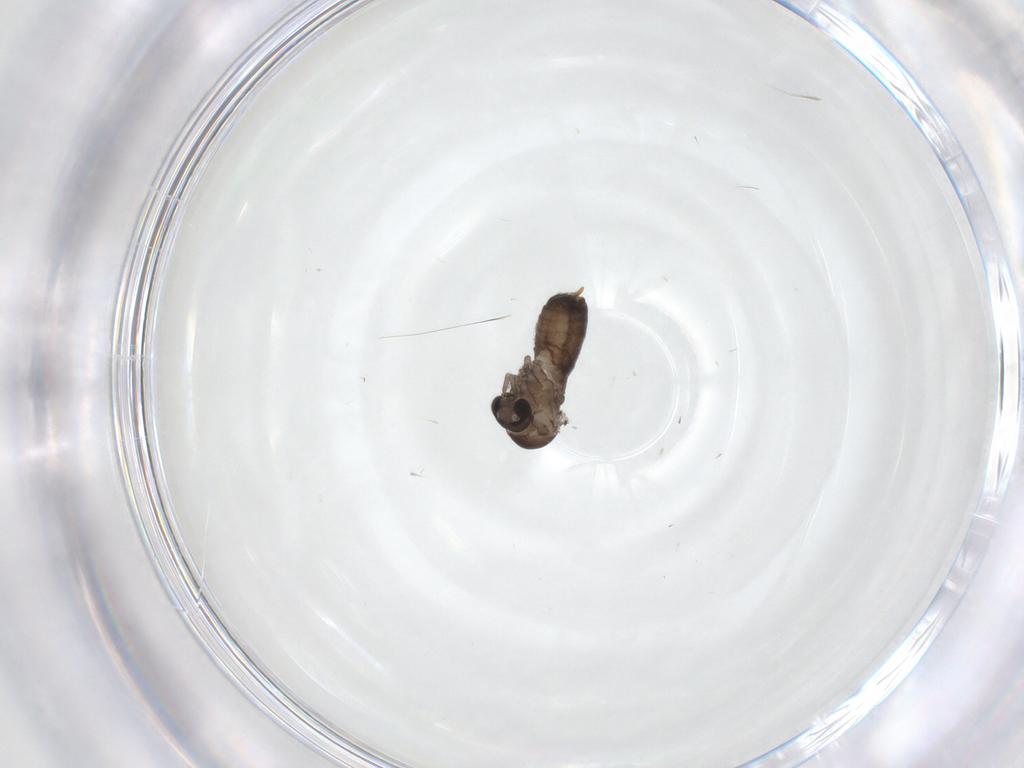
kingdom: Animalia
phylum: Arthropoda
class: Insecta
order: Diptera
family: Psychodidae
